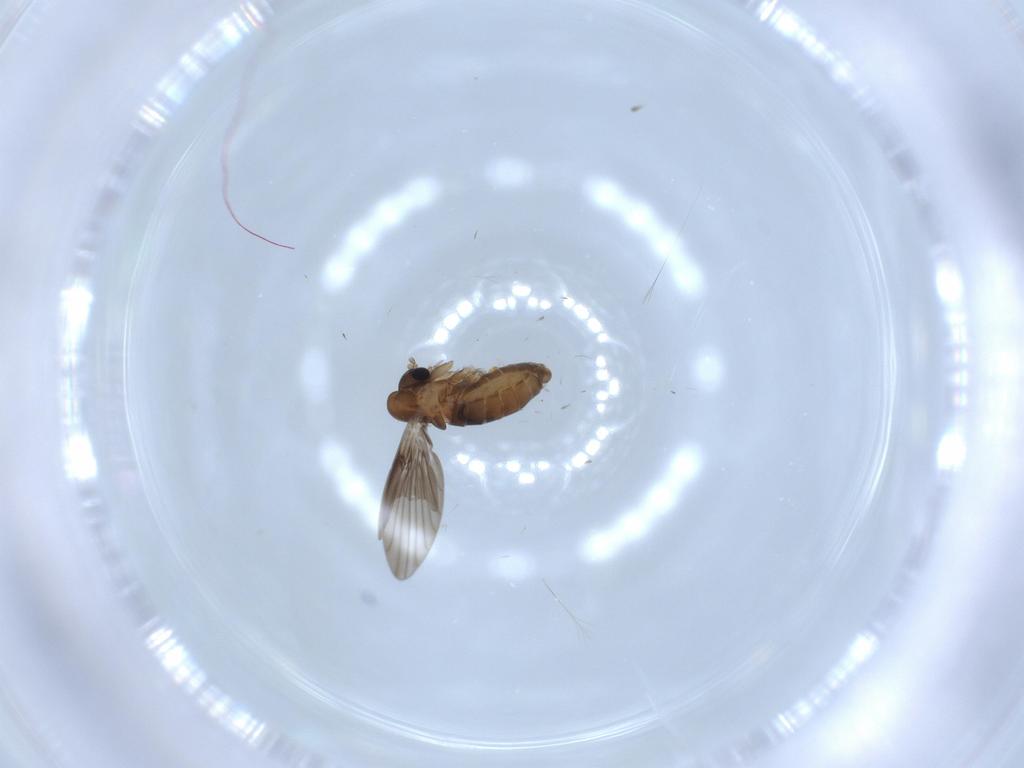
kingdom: Animalia
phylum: Arthropoda
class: Insecta
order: Diptera
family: Psychodidae
